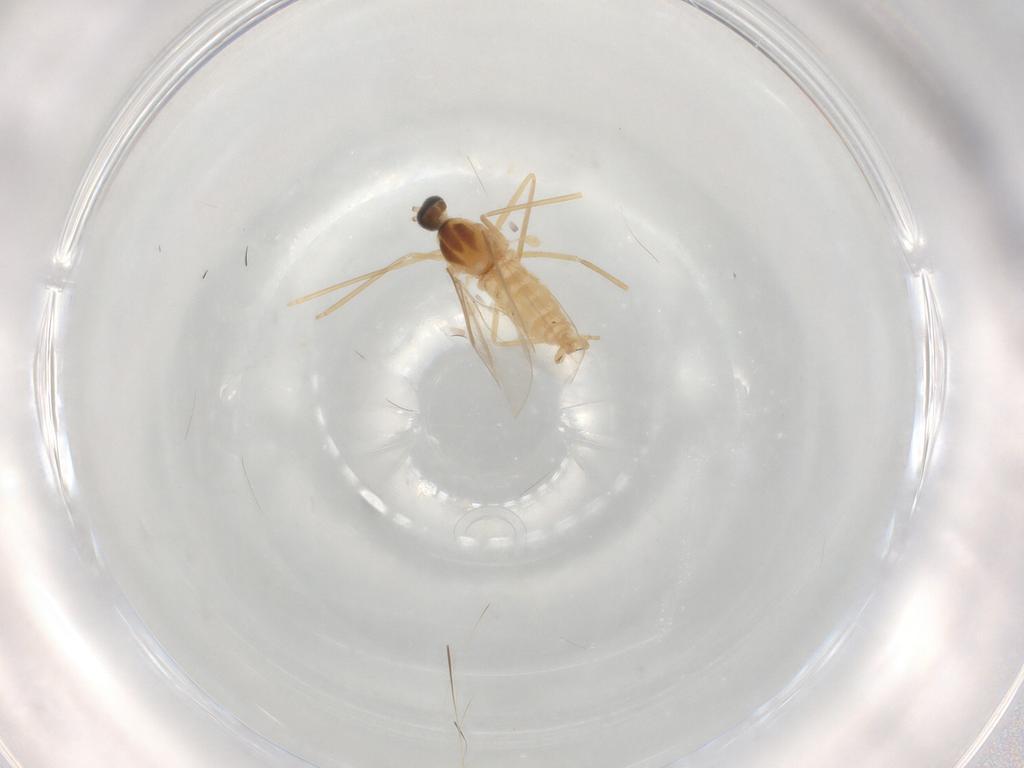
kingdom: Animalia
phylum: Arthropoda
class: Insecta
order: Diptera
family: Cecidomyiidae
